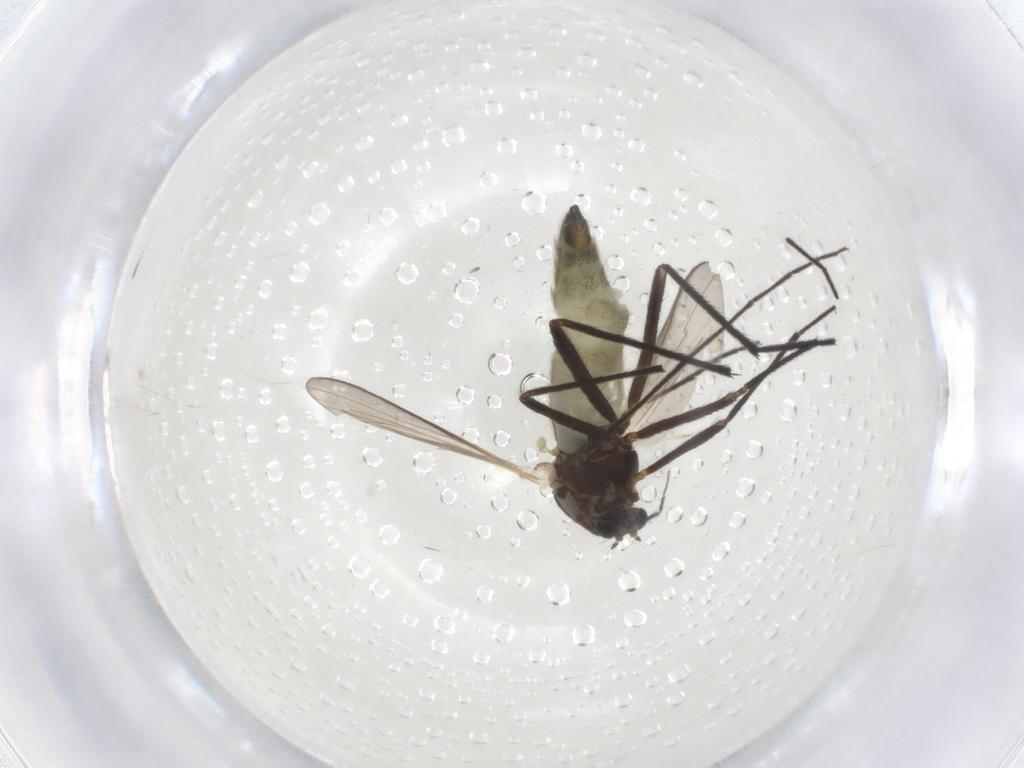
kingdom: Animalia
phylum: Arthropoda
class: Insecta
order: Diptera
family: Chironomidae
